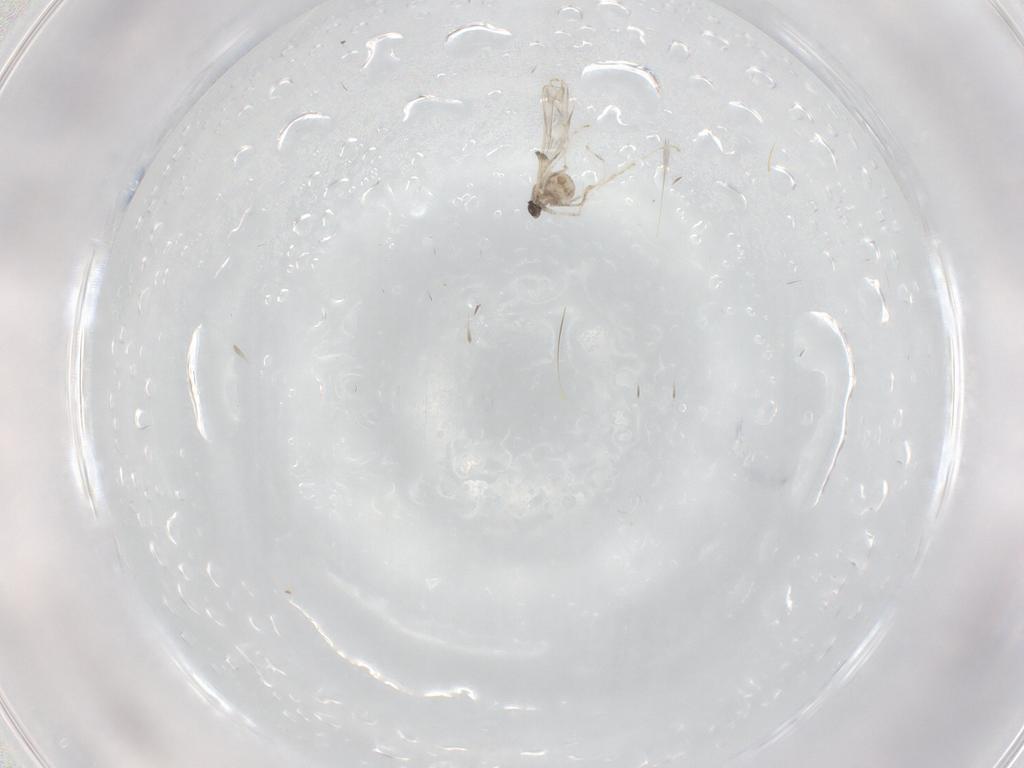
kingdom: Animalia
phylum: Arthropoda
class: Insecta
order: Diptera
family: Cecidomyiidae
